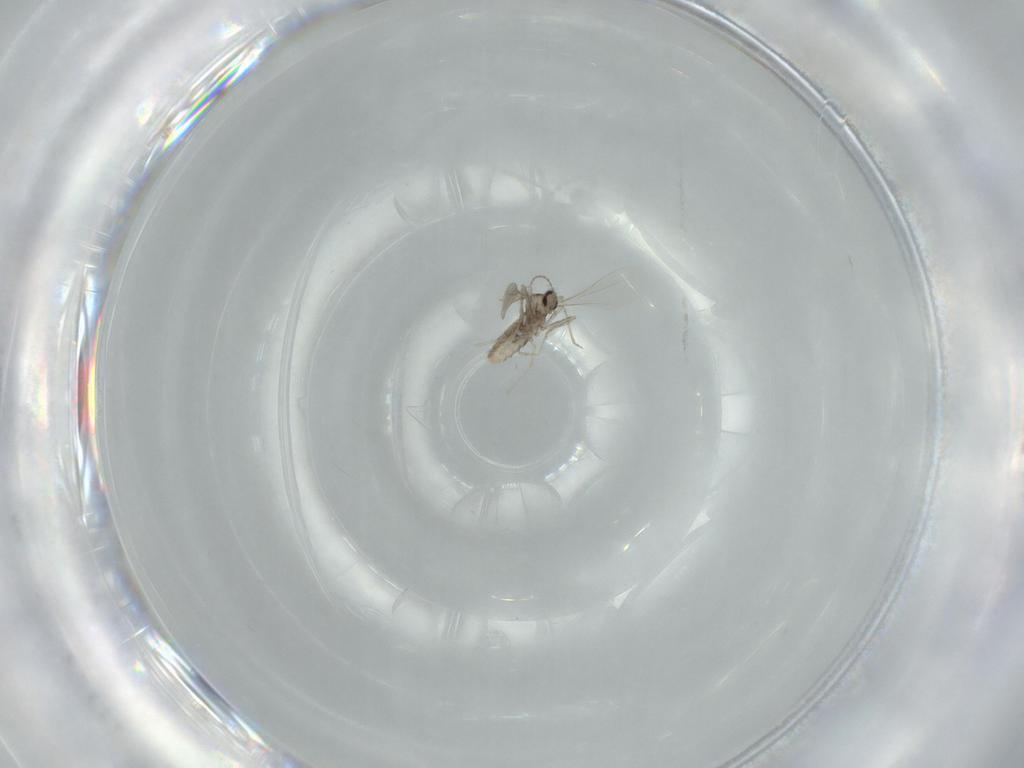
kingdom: Animalia
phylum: Arthropoda
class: Insecta
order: Diptera
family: Cecidomyiidae
